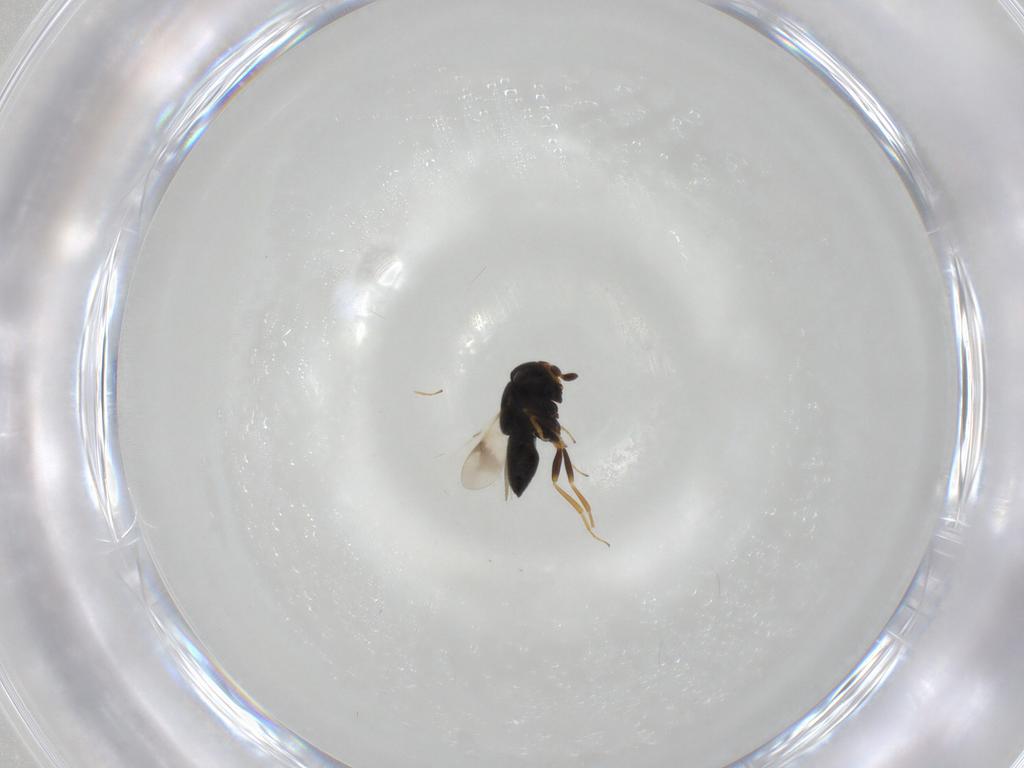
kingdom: Animalia
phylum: Arthropoda
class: Insecta
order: Hymenoptera
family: Scelionidae
